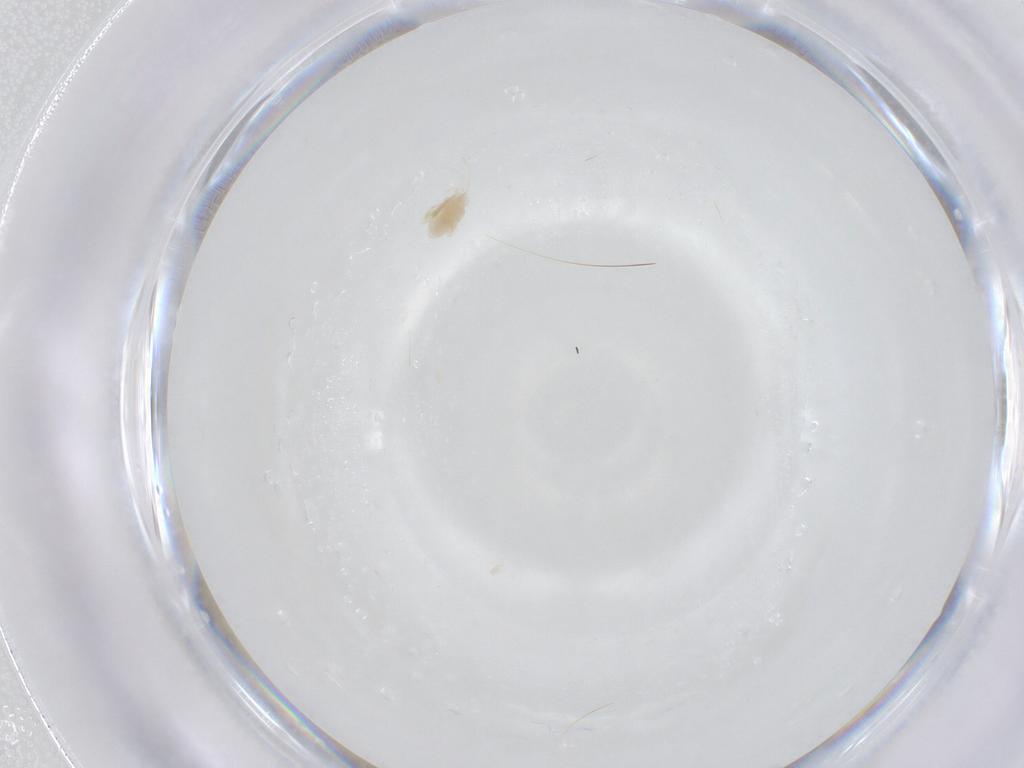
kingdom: Animalia
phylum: Arthropoda
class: Arachnida
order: Trombidiformes
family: Eupodidae
